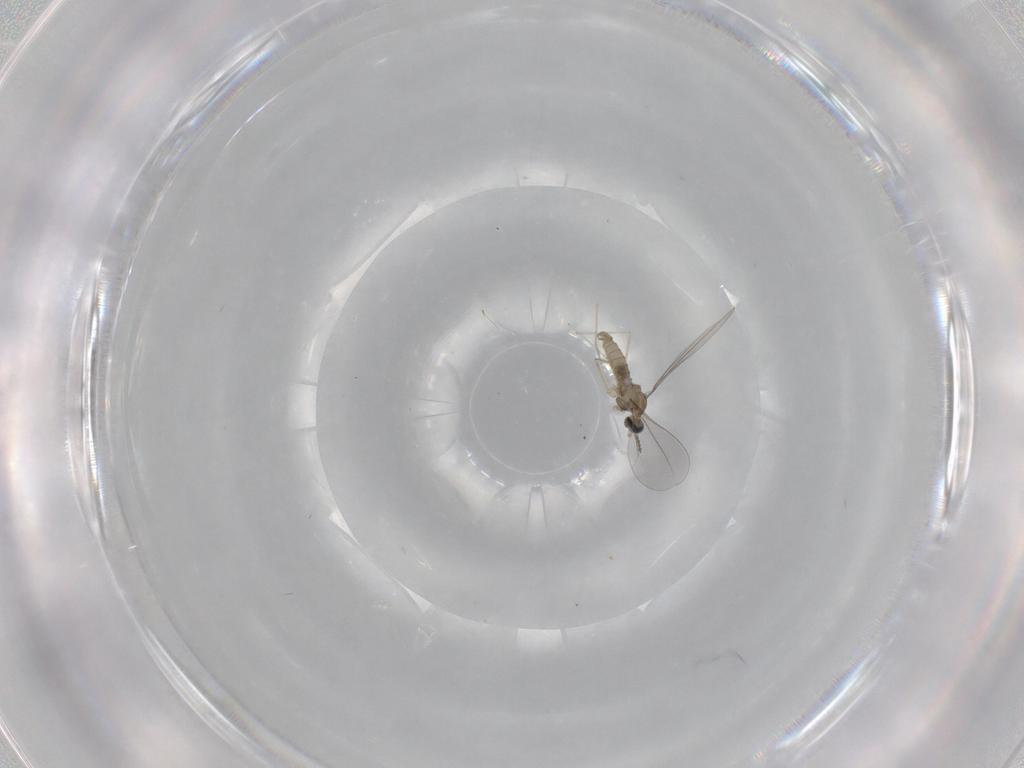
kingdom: Animalia
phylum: Arthropoda
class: Insecta
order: Diptera
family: Cecidomyiidae
